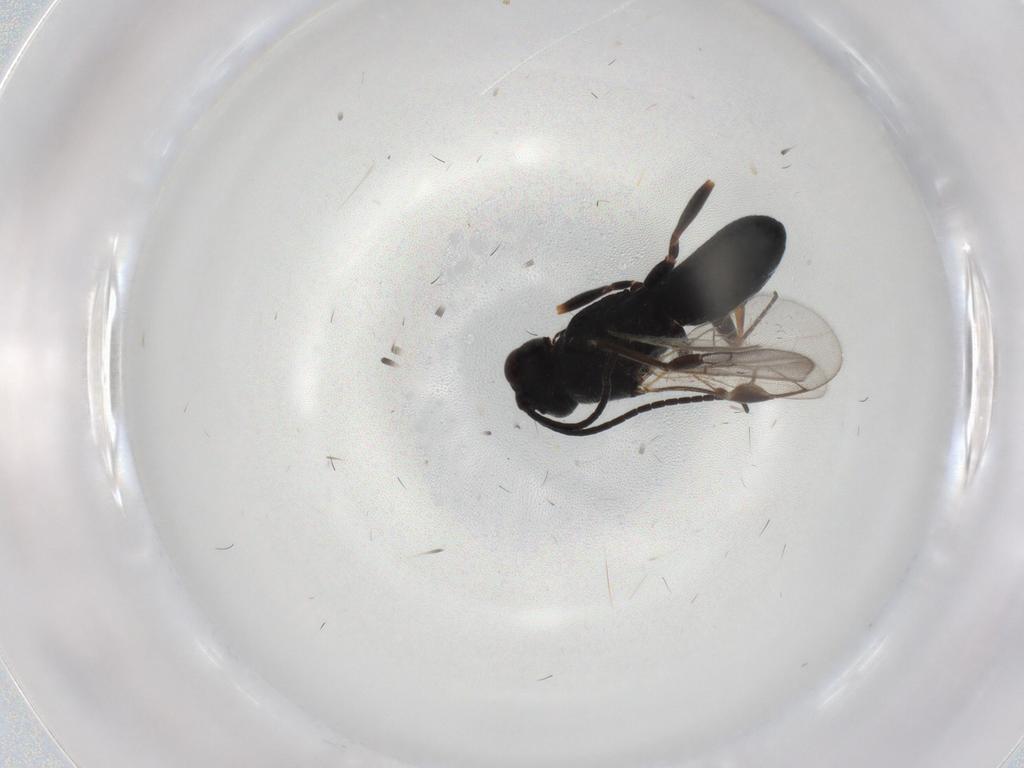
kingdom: Animalia
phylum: Arthropoda
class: Insecta
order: Hymenoptera
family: Braconidae
